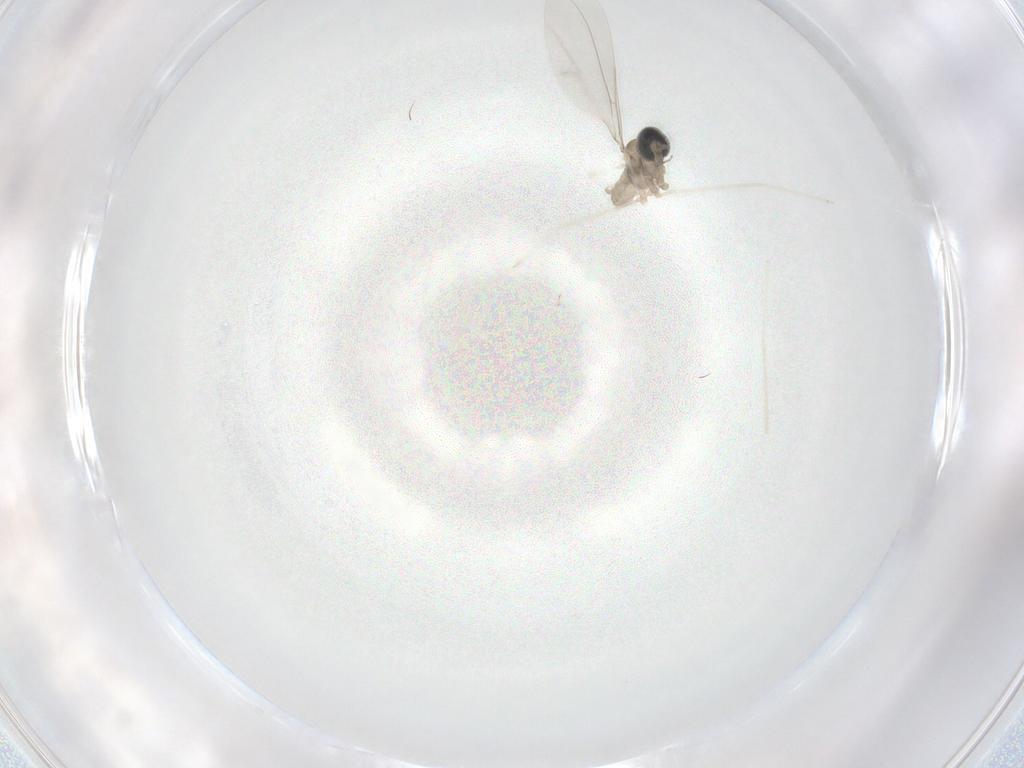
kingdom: Animalia
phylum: Arthropoda
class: Insecta
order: Diptera
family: Cecidomyiidae
